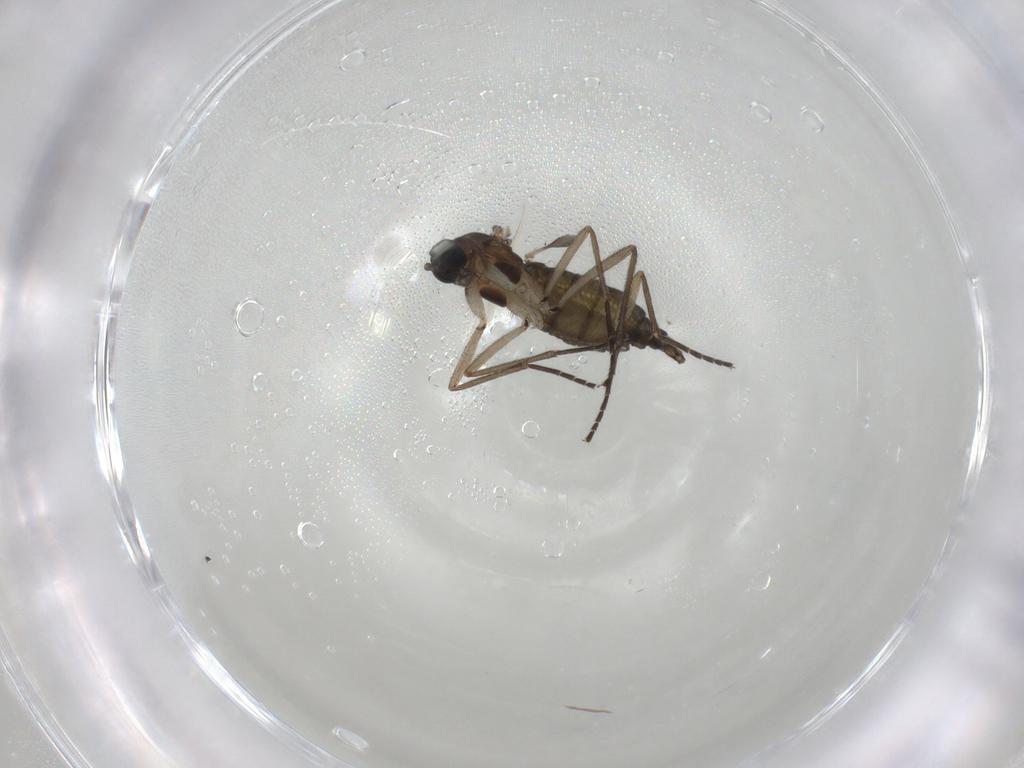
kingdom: Animalia
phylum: Arthropoda
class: Insecta
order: Diptera
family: Sciaridae
